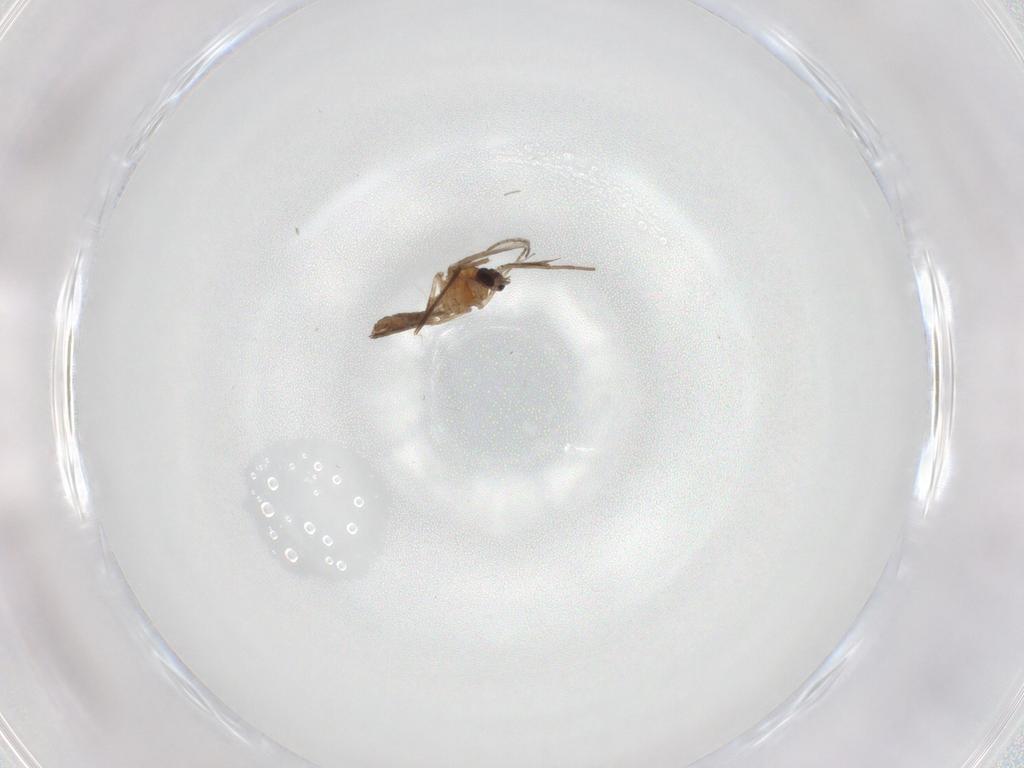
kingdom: Animalia
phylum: Arthropoda
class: Insecta
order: Diptera
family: Chironomidae
